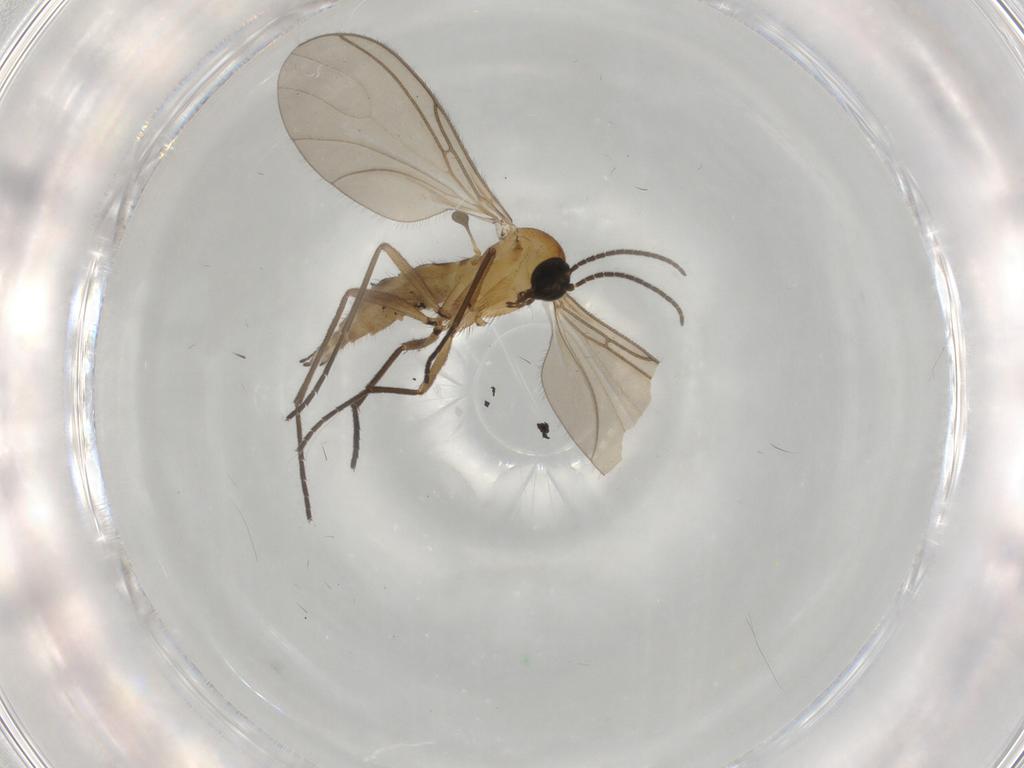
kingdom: Animalia
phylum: Arthropoda
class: Insecta
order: Diptera
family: Sciaridae
